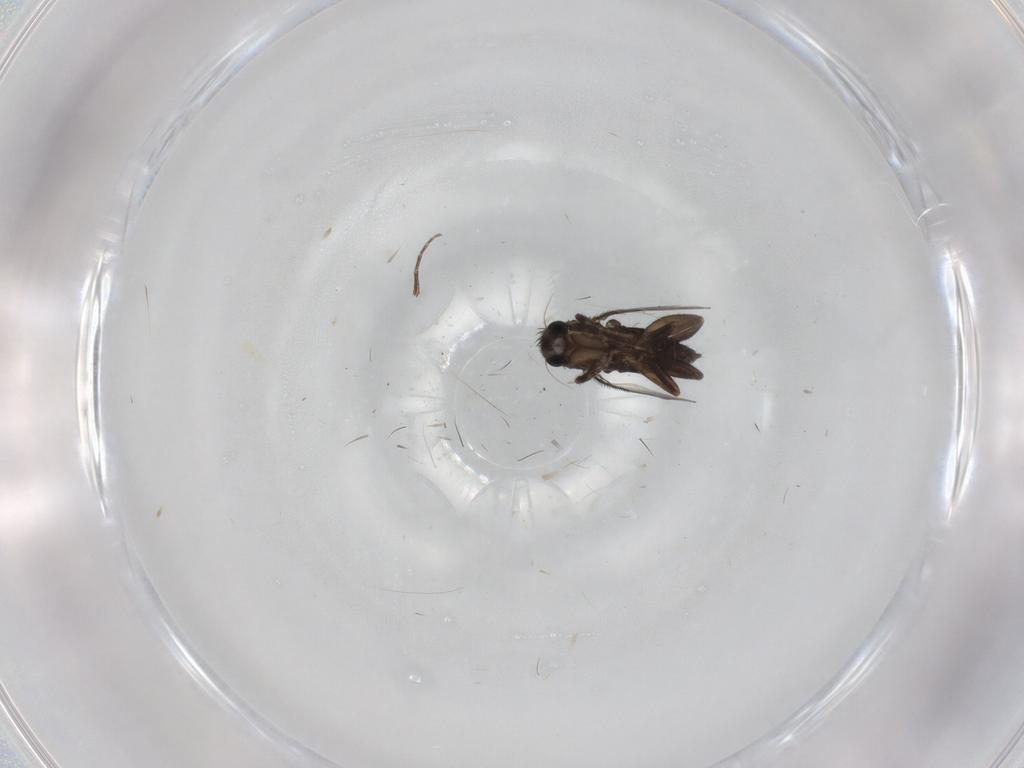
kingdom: Animalia
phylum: Arthropoda
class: Insecta
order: Diptera
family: Phoridae
